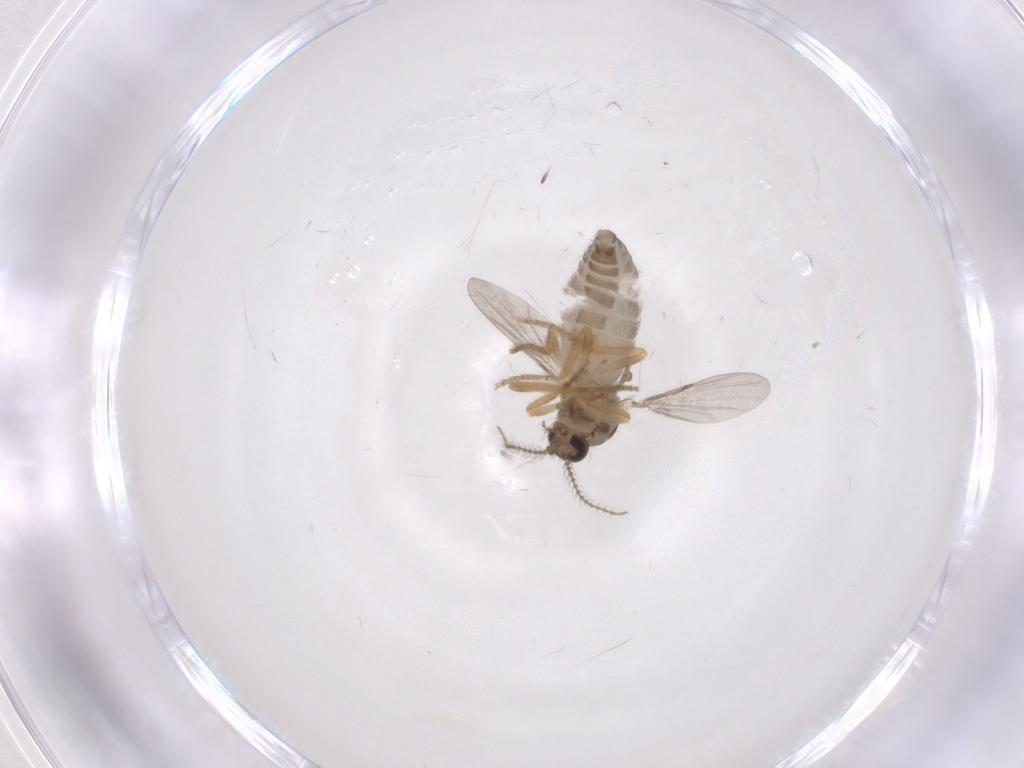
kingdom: Animalia
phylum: Arthropoda
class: Insecta
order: Diptera
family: Ceratopogonidae
